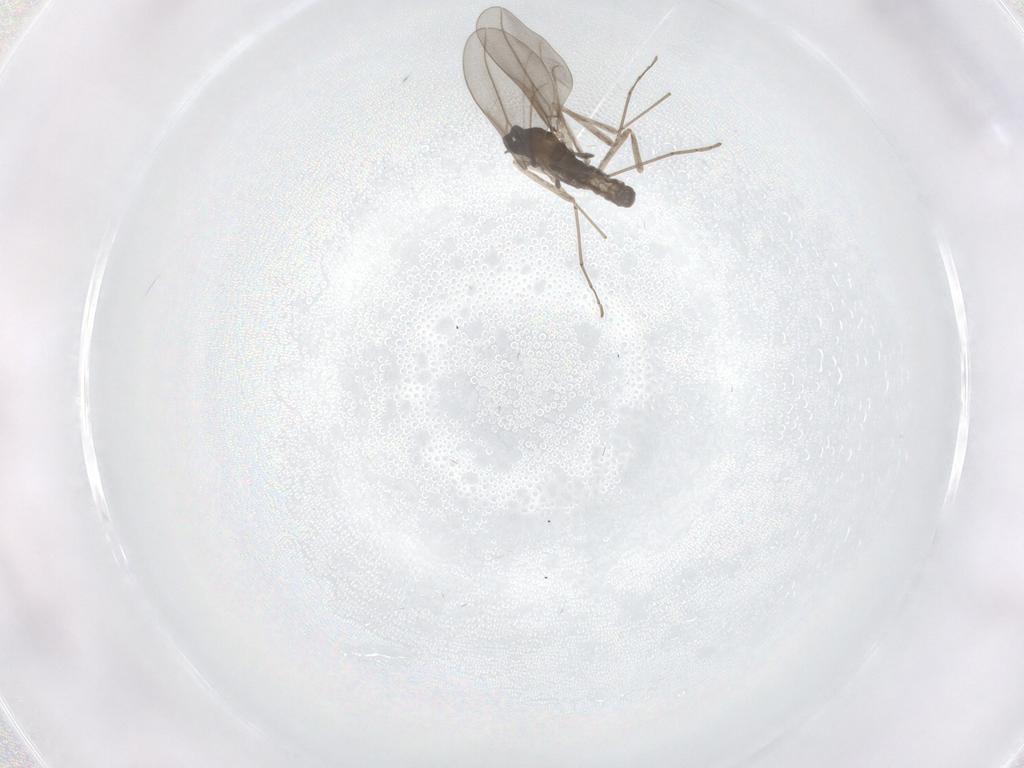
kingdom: Animalia
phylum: Arthropoda
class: Insecta
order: Diptera
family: Cecidomyiidae
